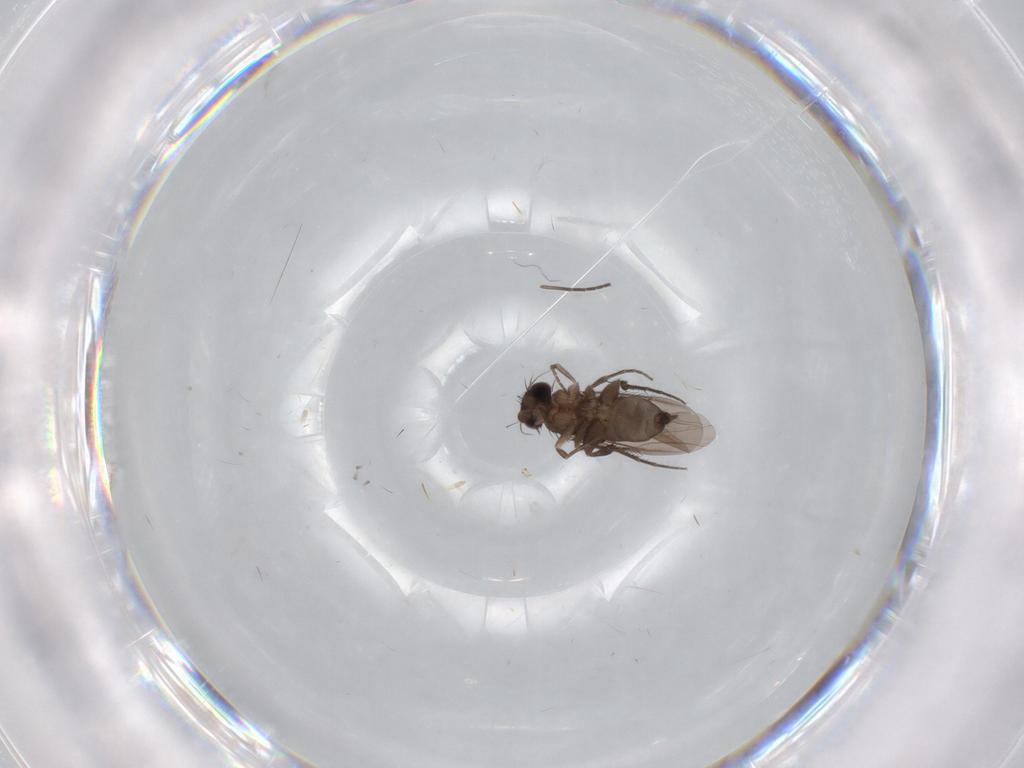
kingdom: Animalia
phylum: Arthropoda
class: Insecta
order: Diptera
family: Phoridae
